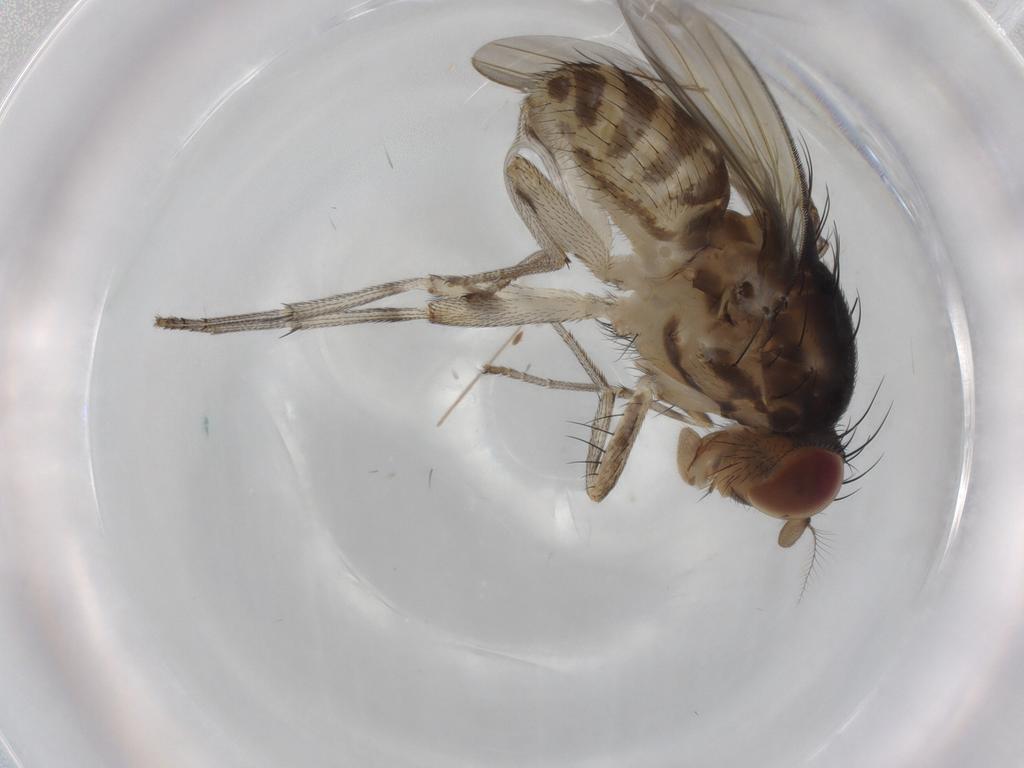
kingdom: Animalia
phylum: Arthropoda
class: Insecta
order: Diptera
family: Chironomidae
